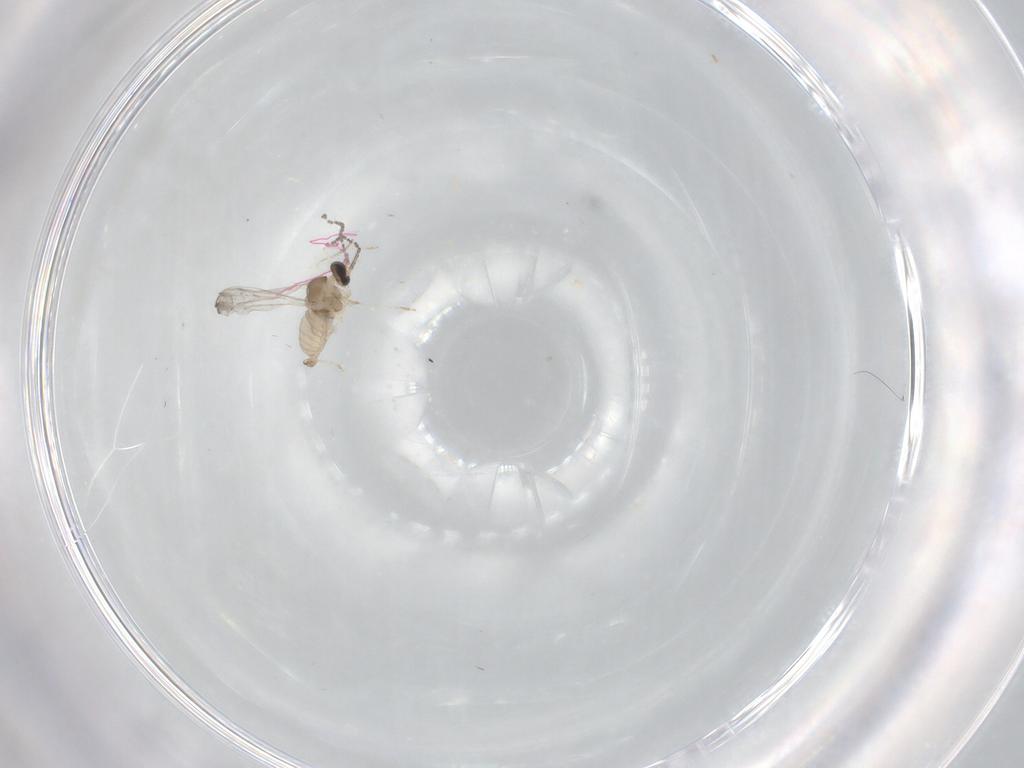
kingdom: Animalia
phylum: Arthropoda
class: Insecta
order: Diptera
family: Cecidomyiidae
